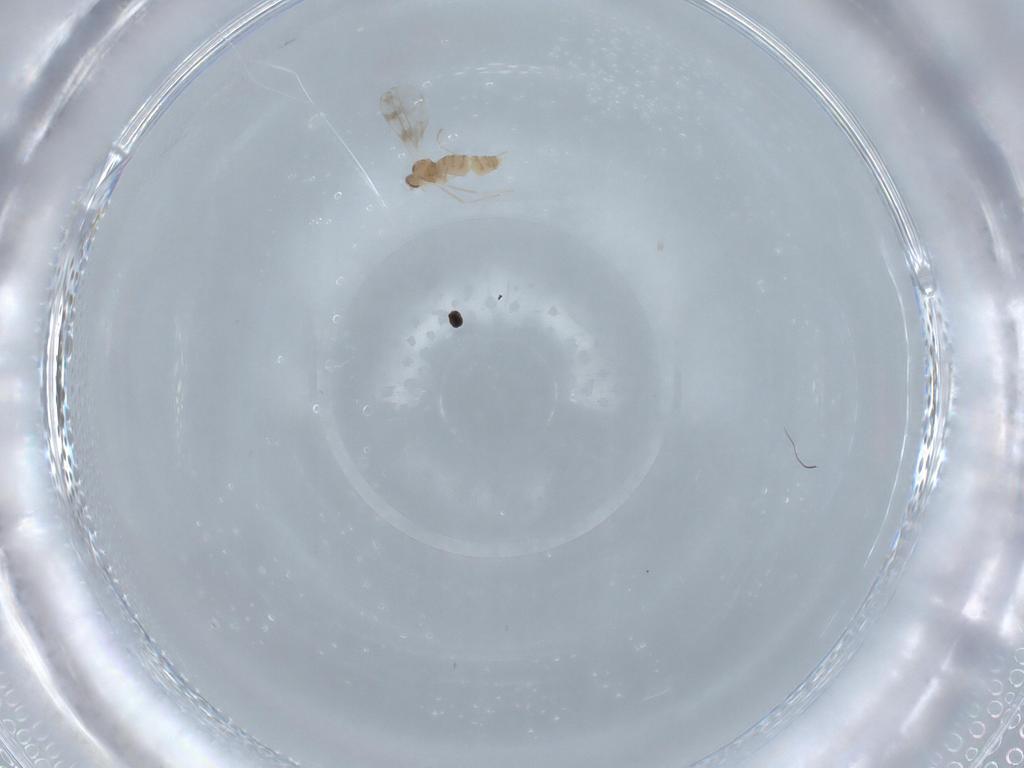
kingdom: Animalia
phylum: Arthropoda
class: Insecta
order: Diptera
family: Cecidomyiidae
